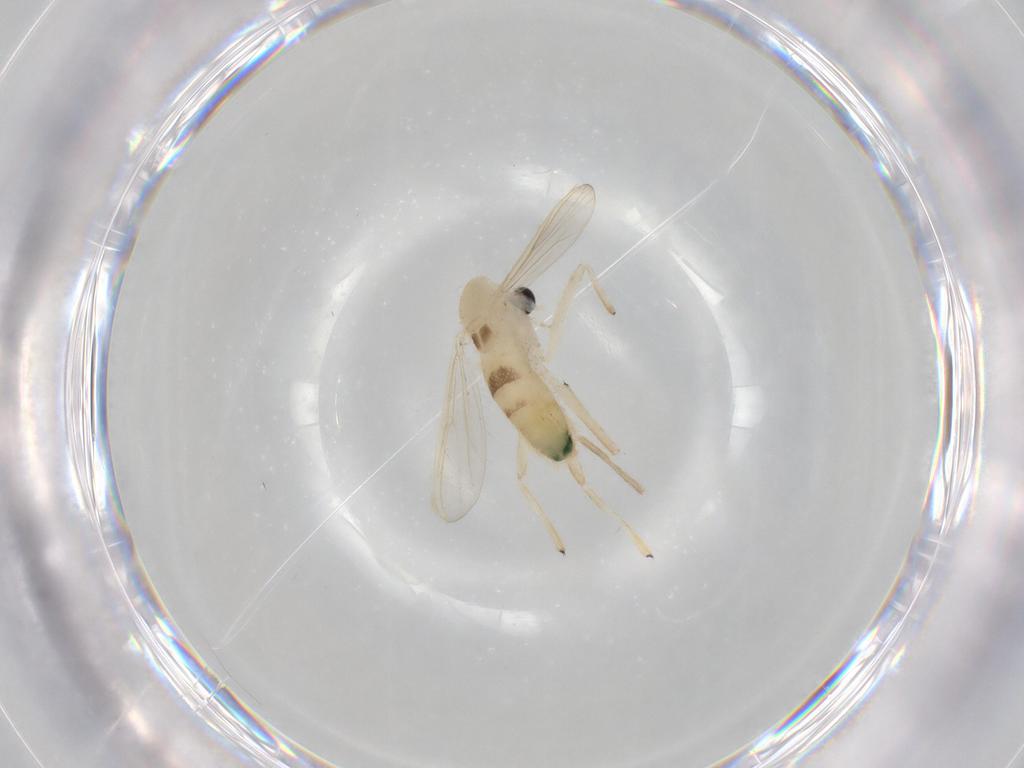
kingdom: Animalia
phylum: Arthropoda
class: Insecta
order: Diptera
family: Chironomidae
